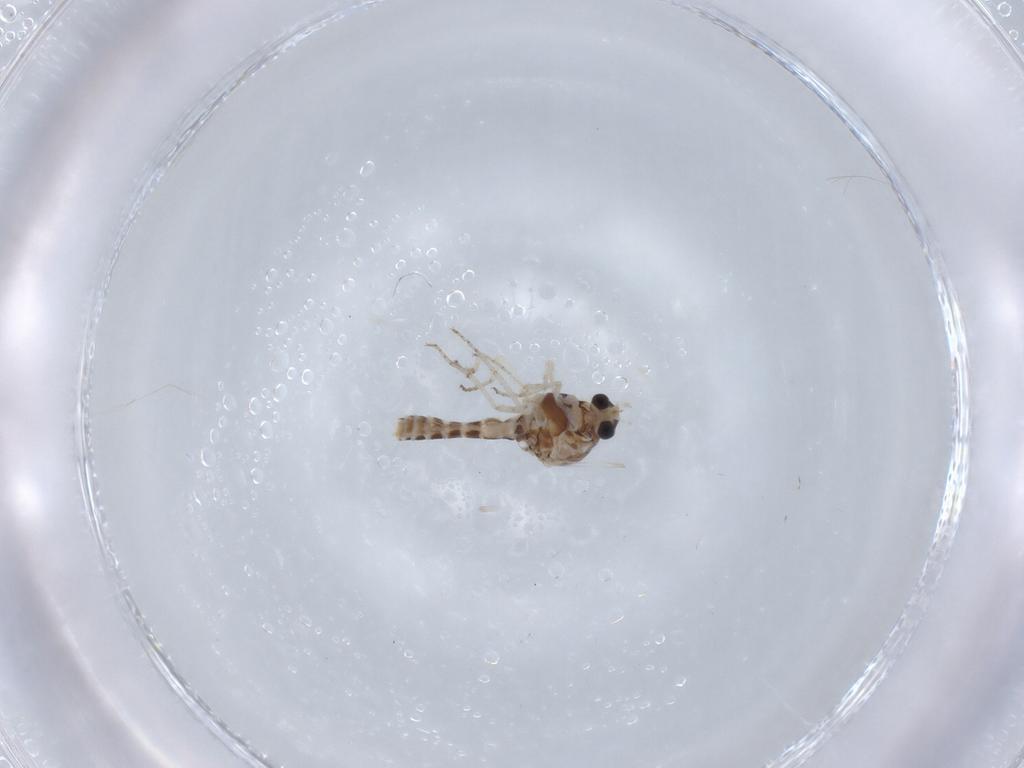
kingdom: Animalia
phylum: Arthropoda
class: Insecta
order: Diptera
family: Ceratopogonidae
